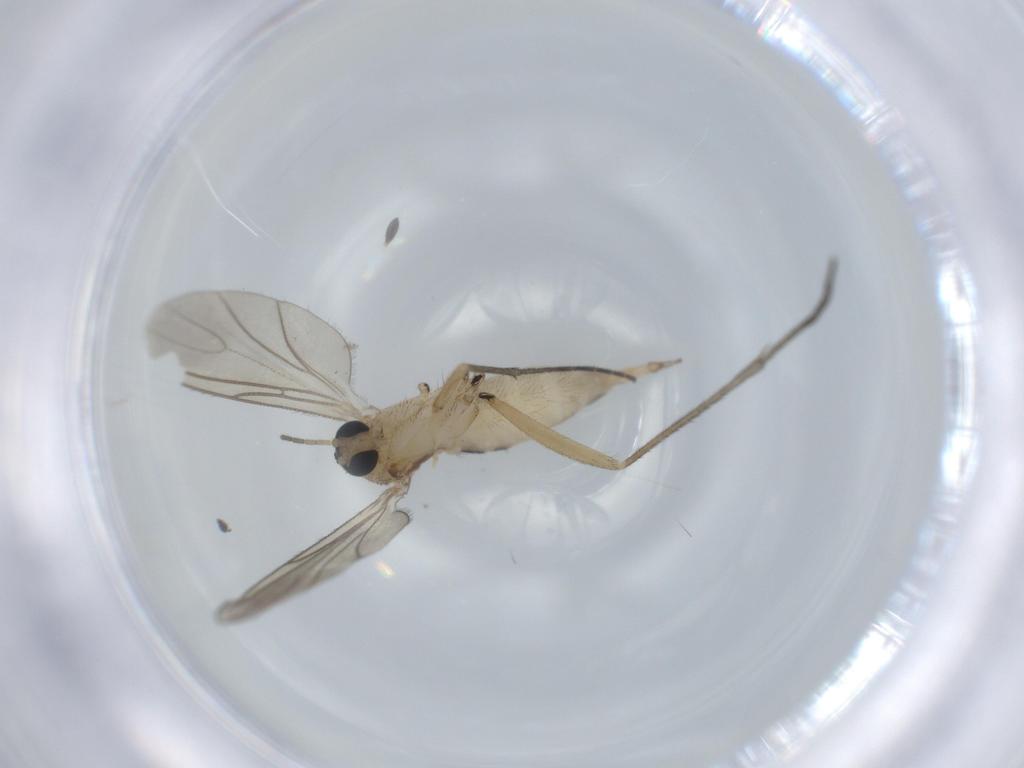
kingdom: Animalia
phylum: Arthropoda
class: Insecta
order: Diptera
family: Sciaridae
